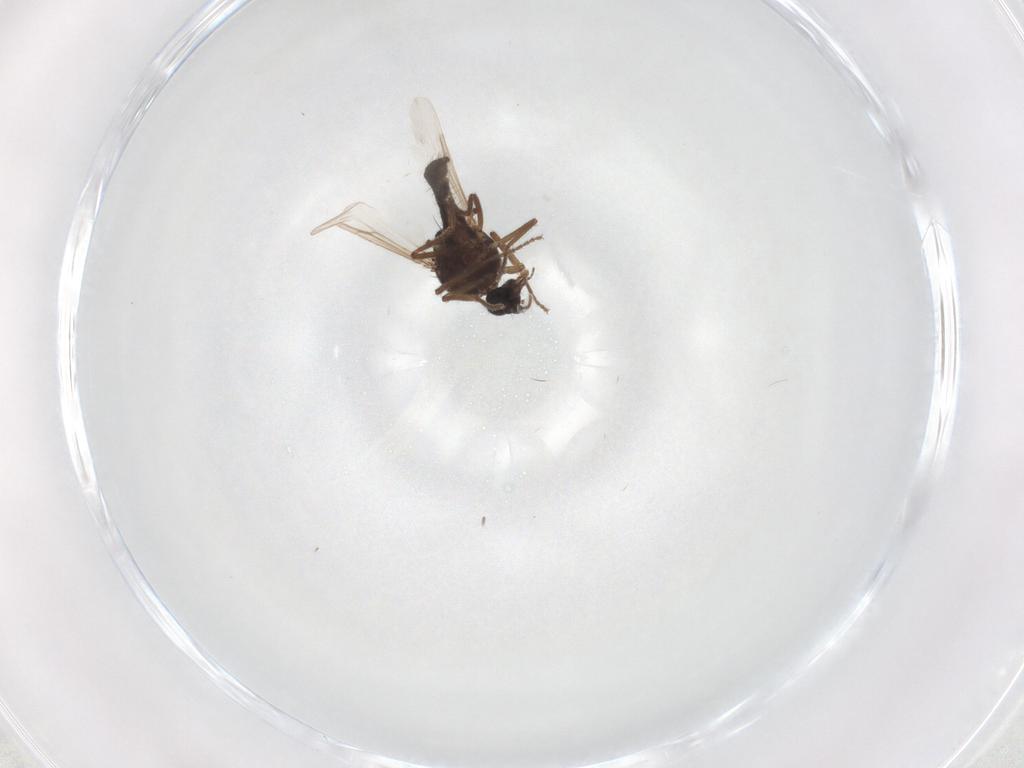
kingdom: Animalia
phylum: Arthropoda
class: Insecta
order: Diptera
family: Ceratopogonidae
